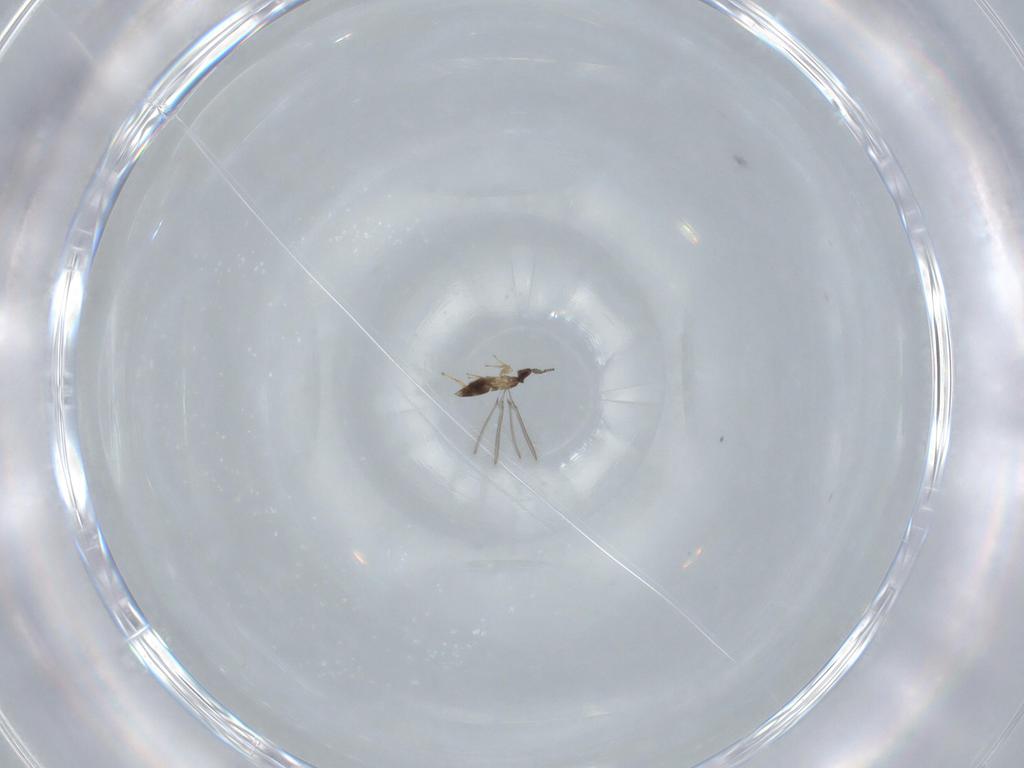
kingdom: Animalia
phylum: Arthropoda
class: Insecta
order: Hymenoptera
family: Mymaridae
